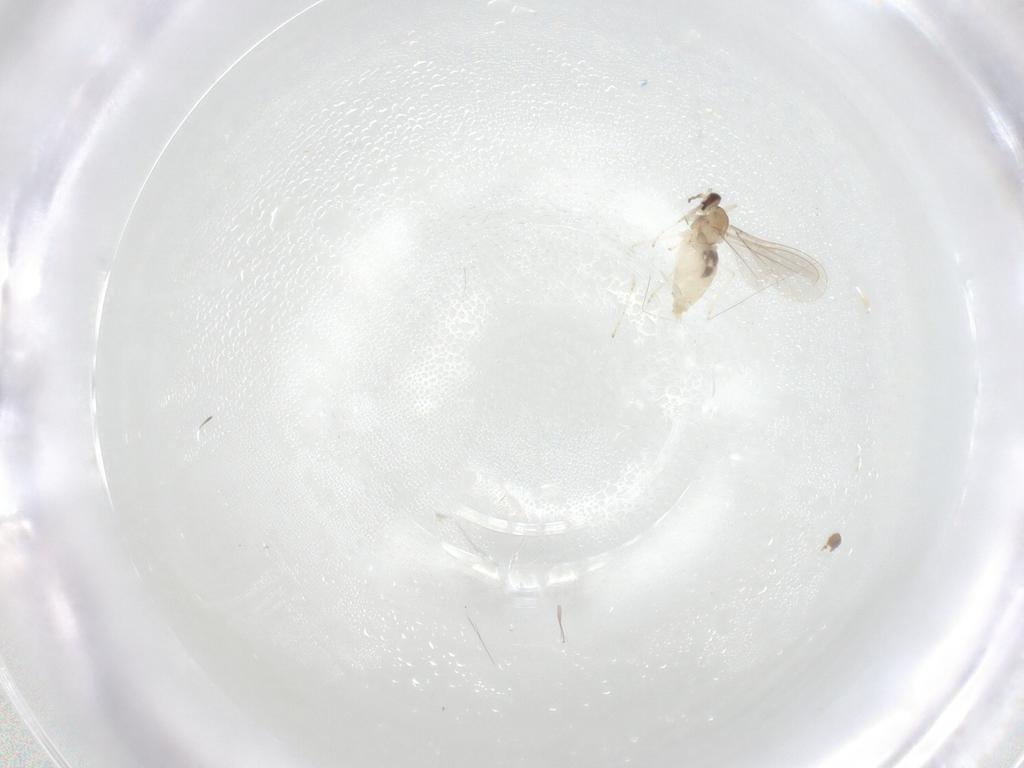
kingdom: Animalia
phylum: Arthropoda
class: Insecta
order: Diptera
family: Cecidomyiidae
